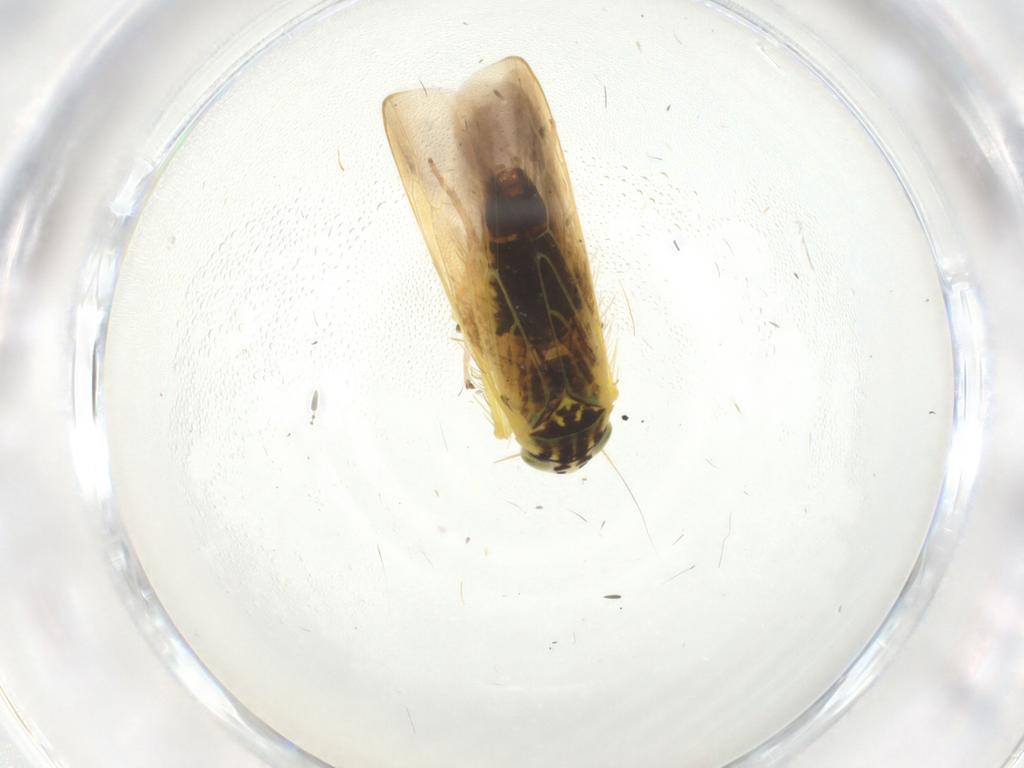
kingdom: Animalia
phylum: Arthropoda
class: Insecta
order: Hemiptera
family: Cicadellidae
